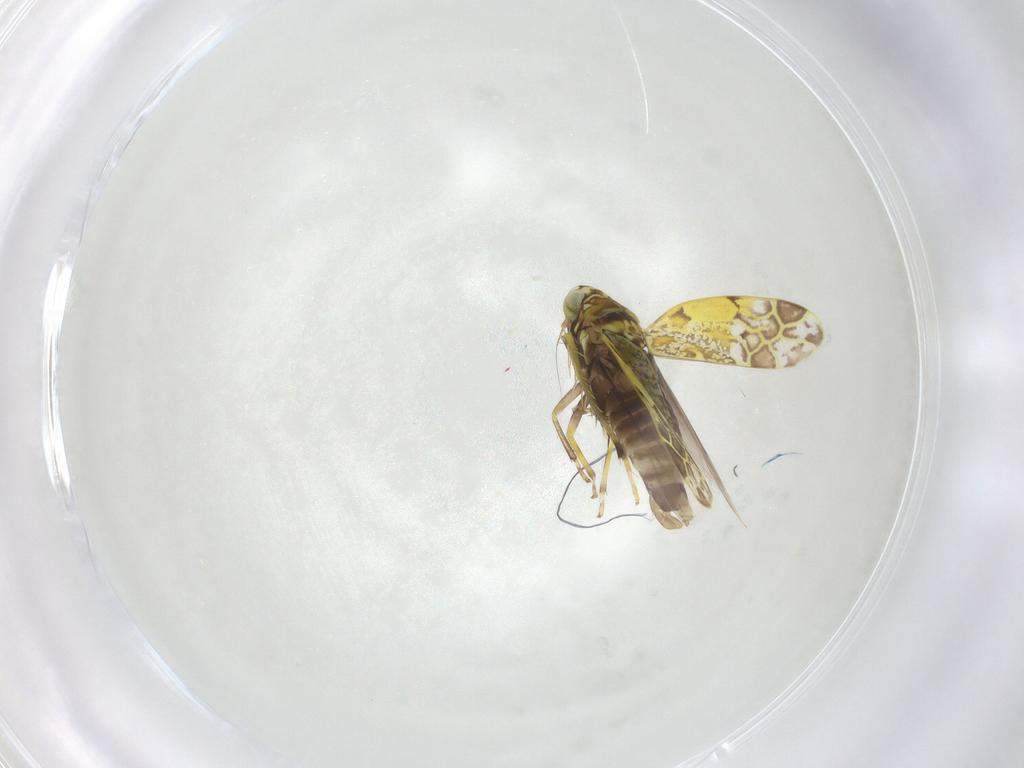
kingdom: Animalia
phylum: Arthropoda
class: Insecta
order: Hemiptera
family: Cicadellidae
